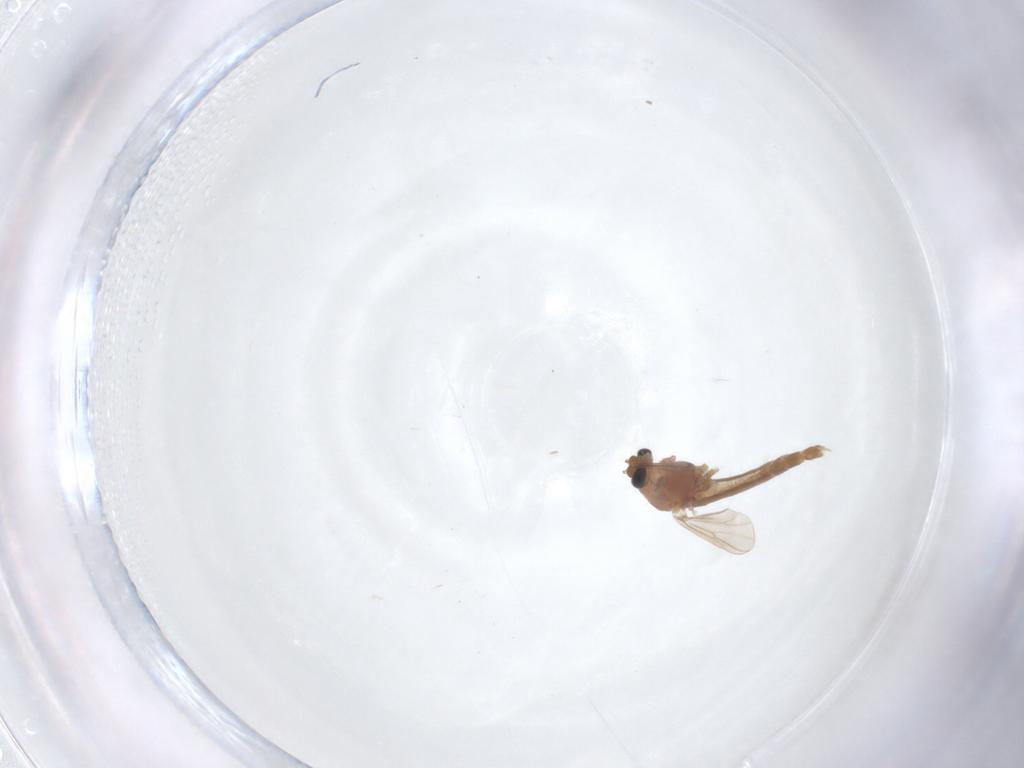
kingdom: Animalia
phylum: Arthropoda
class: Insecta
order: Diptera
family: Chironomidae
